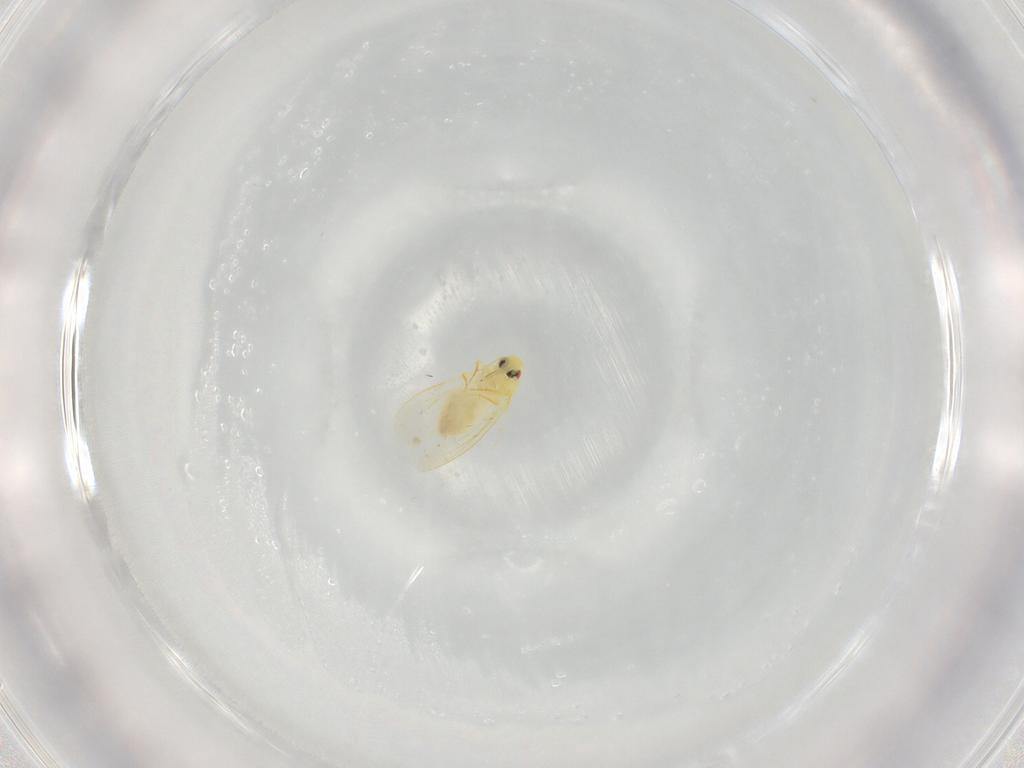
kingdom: Animalia
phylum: Arthropoda
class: Insecta
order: Hemiptera
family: Aleyrodidae
